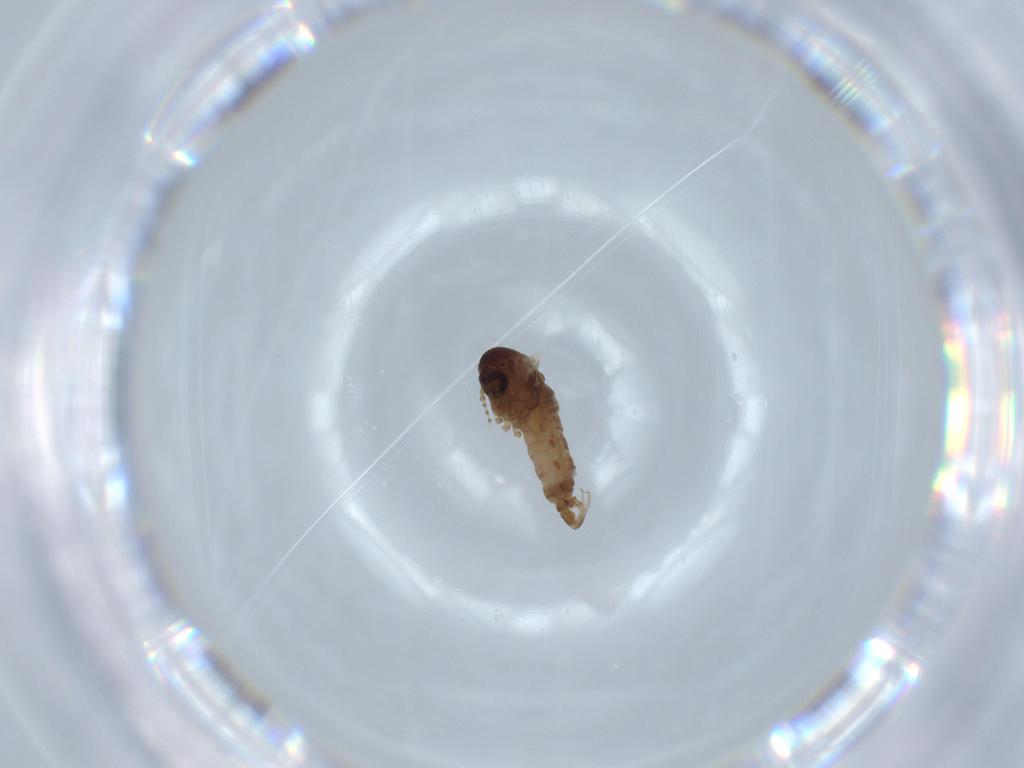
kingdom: Animalia
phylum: Arthropoda
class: Insecta
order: Diptera
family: Psychodidae
